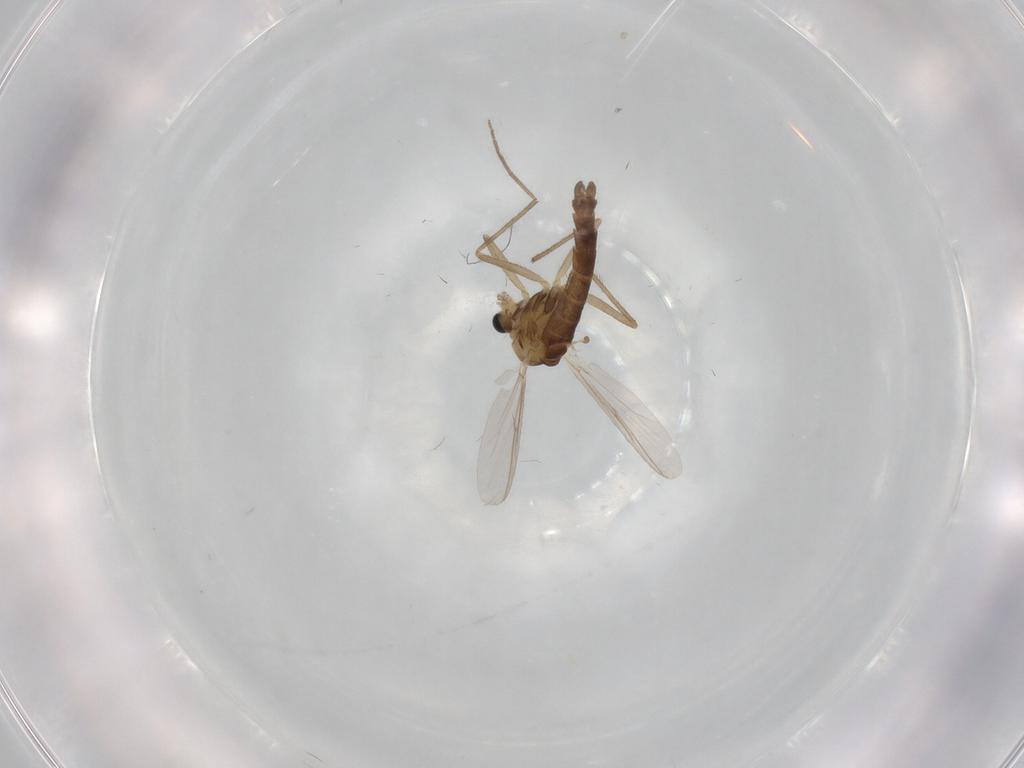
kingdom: Animalia
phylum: Arthropoda
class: Insecta
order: Diptera
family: Chironomidae
